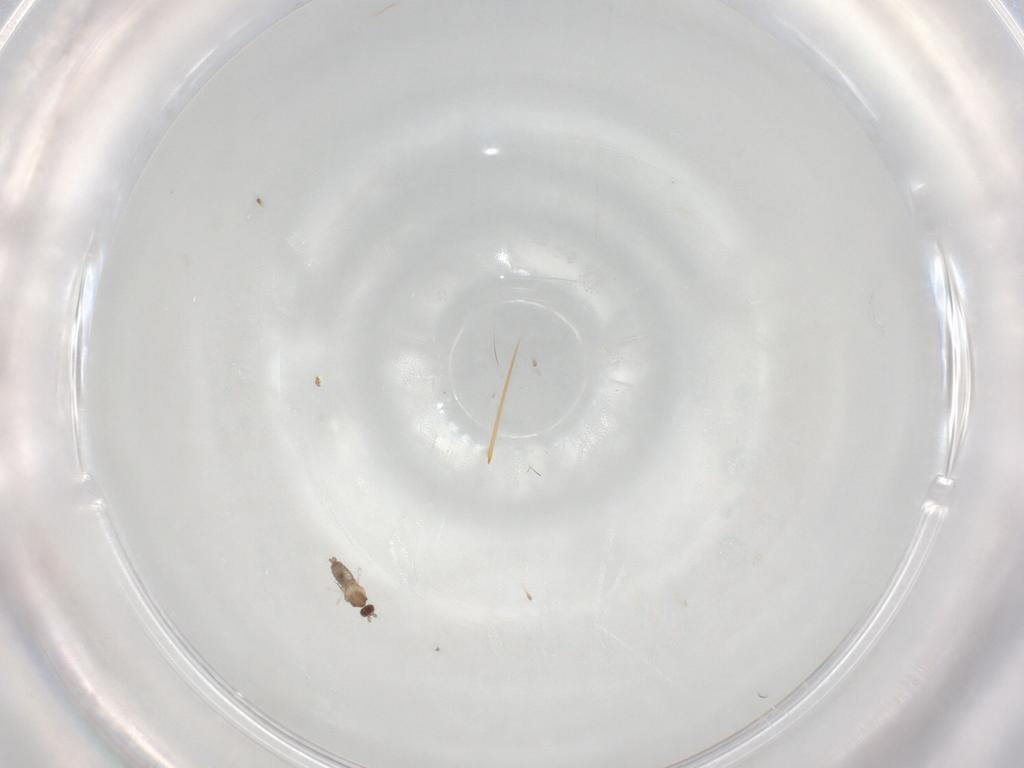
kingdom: Animalia
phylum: Arthropoda
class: Insecta
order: Diptera
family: Cecidomyiidae
